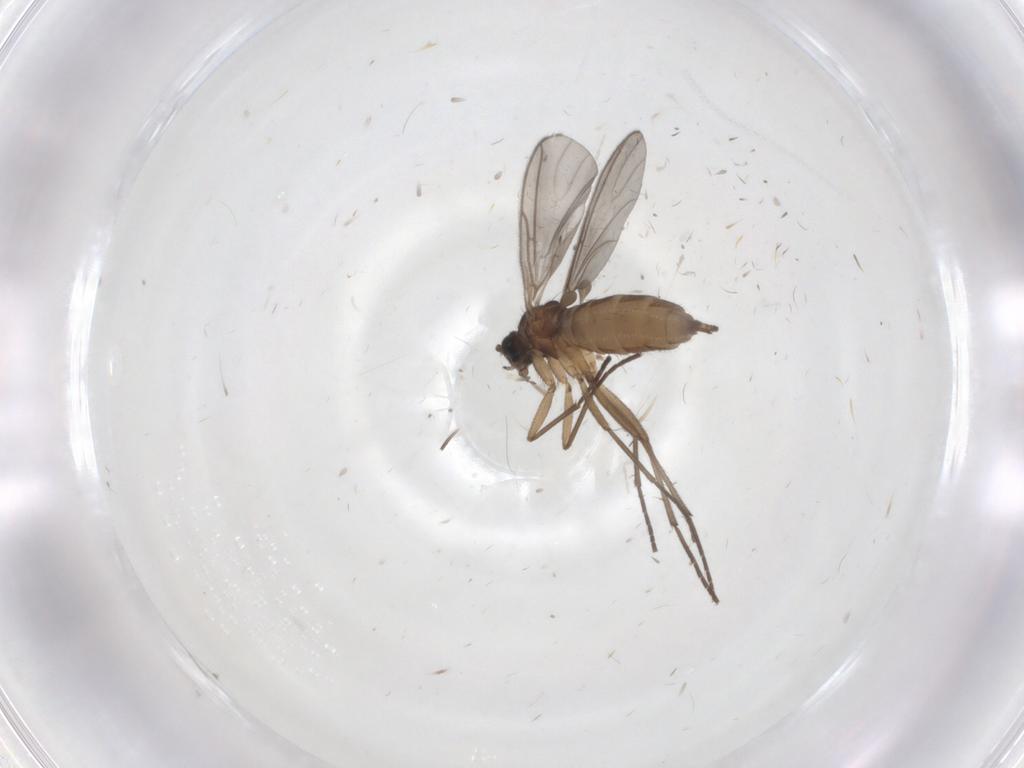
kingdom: Animalia
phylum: Arthropoda
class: Insecta
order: Diptera
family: Sciaridae
